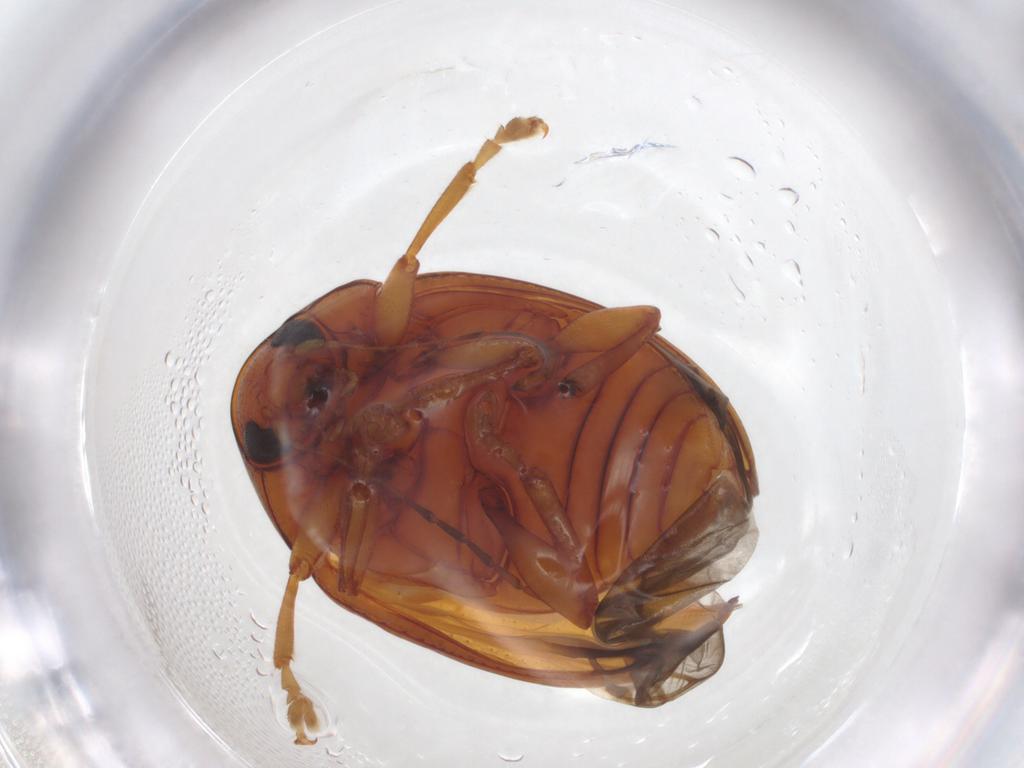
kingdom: Animalia
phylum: Arthropoda
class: Insecta
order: Coleoptera
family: Chrysomelidae
